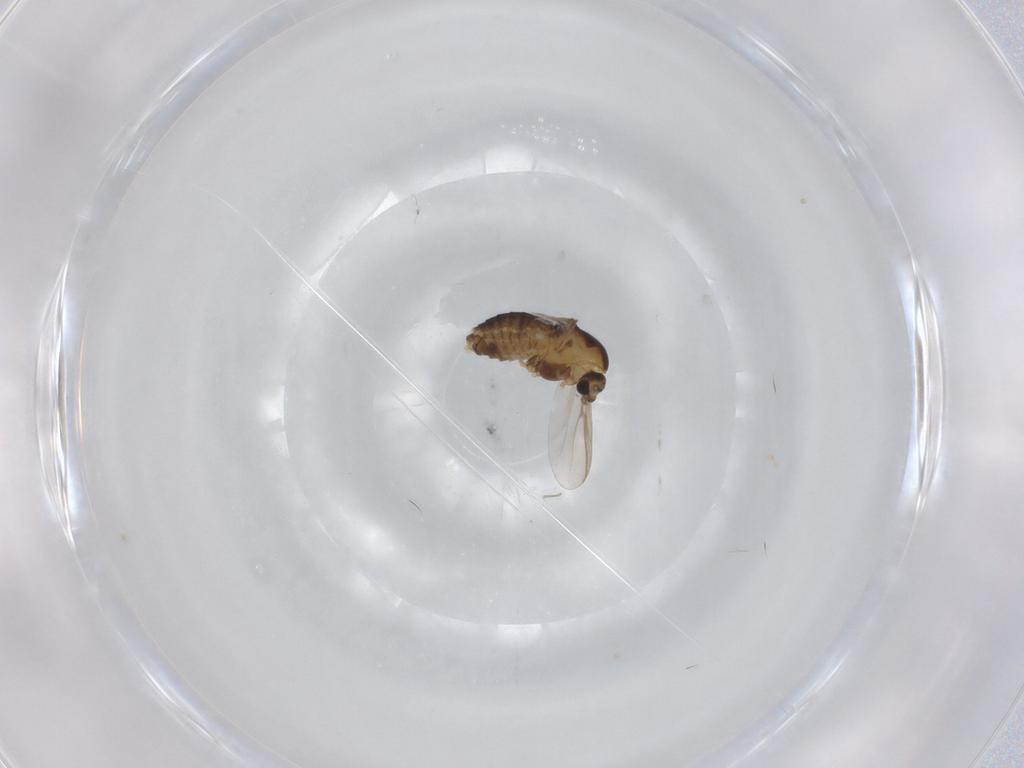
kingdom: Animalia
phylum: Arthropoda
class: Insecta
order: Diptera
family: Chironomidae
